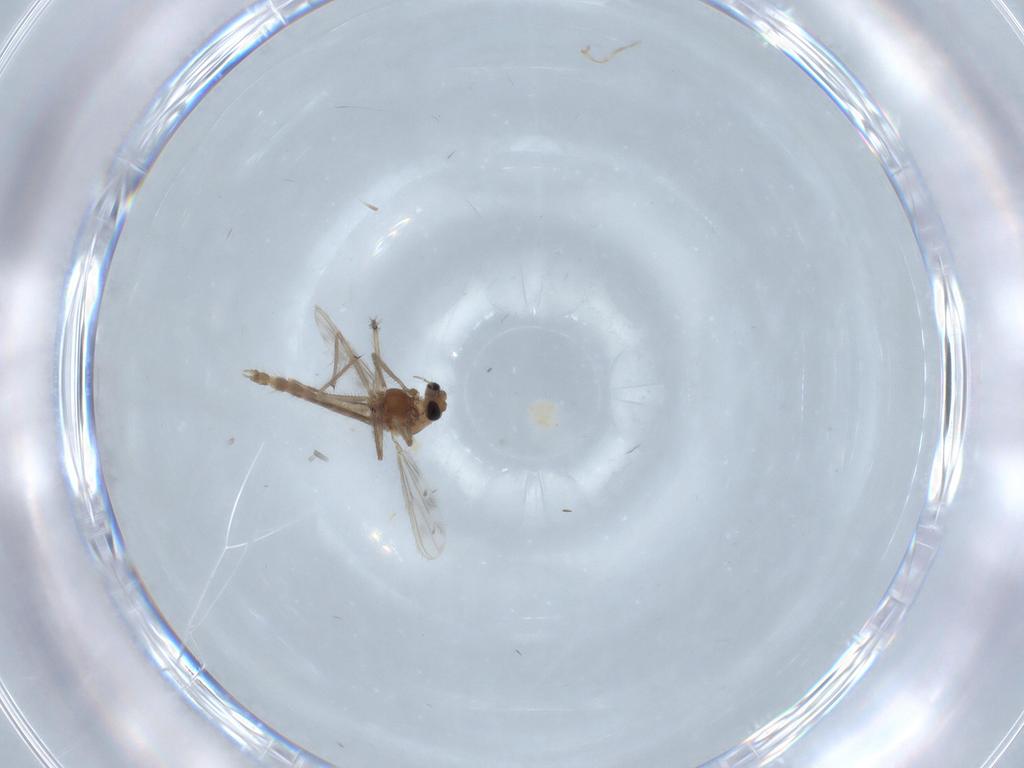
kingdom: Animalia
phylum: Arthropoda
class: Insecta
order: Diptera
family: Chironomidae
